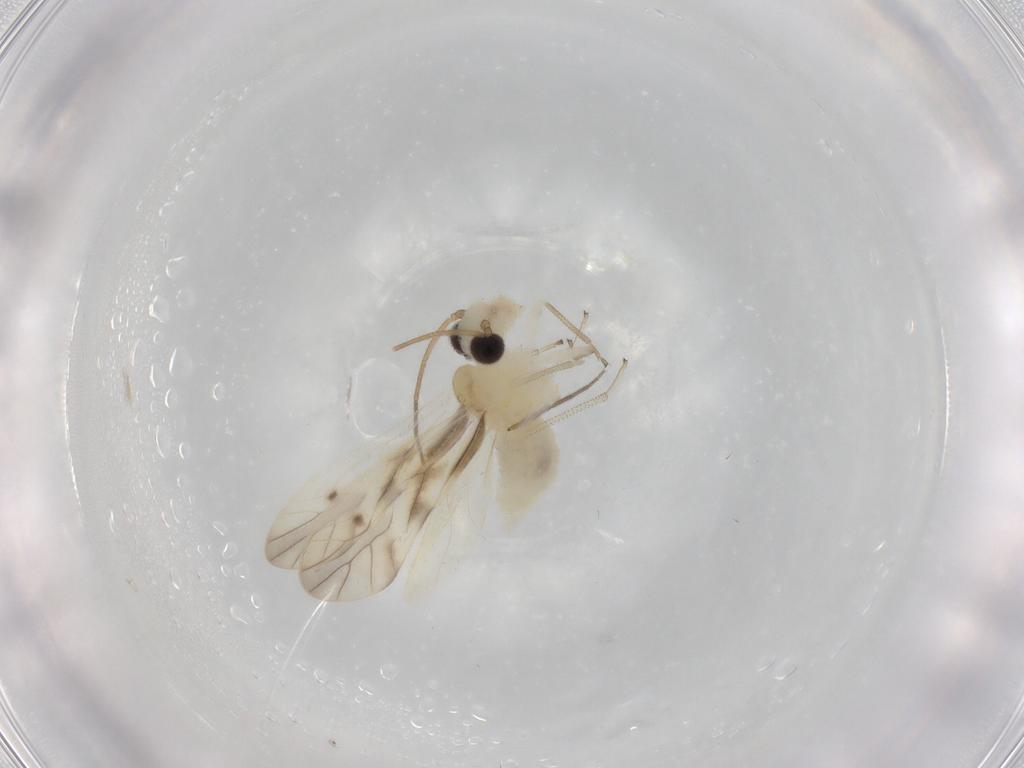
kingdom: Animalia
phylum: Arthropoda
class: Insecta
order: Psocodea
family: Caeciliusidae
